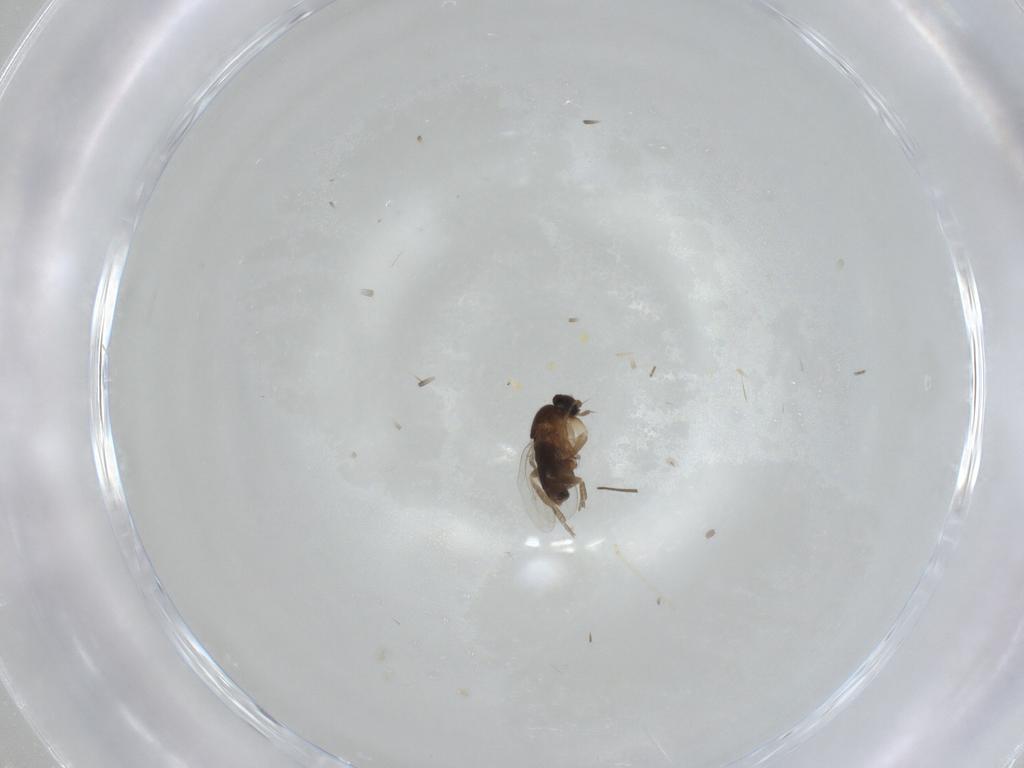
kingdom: Animalia
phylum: Arthropoda
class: Insecta
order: Diptera
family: Cecidomyiidae
